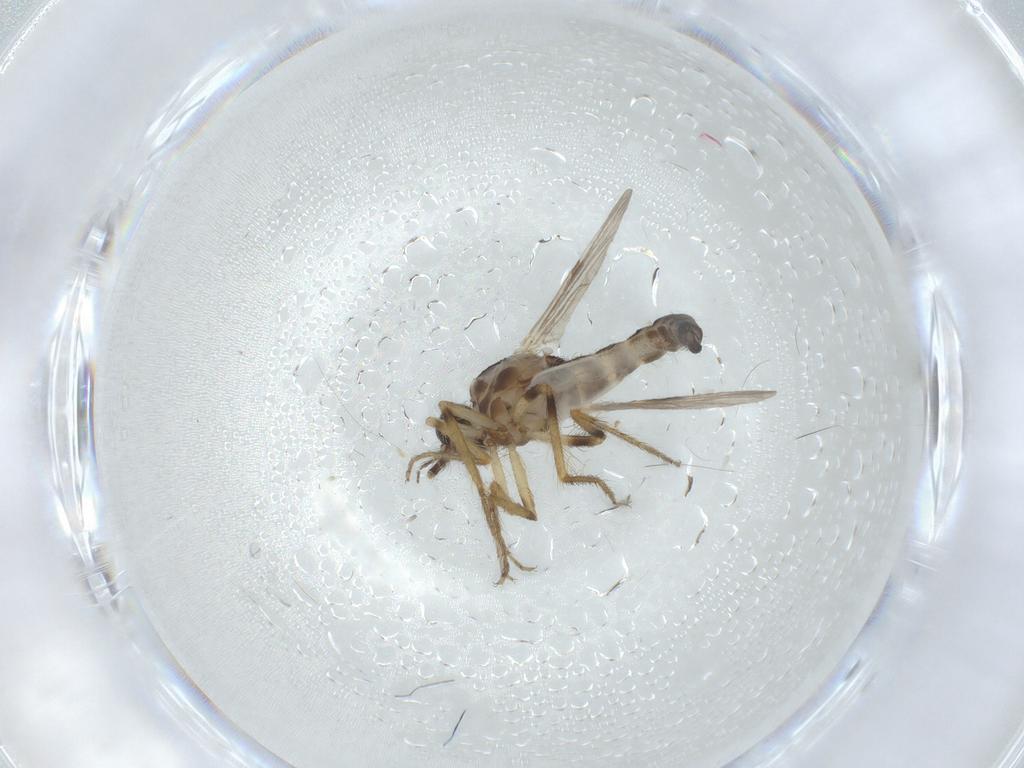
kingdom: Animalia
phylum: Arthropoda
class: Insecta
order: Diptera
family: Ceratopogonidae
